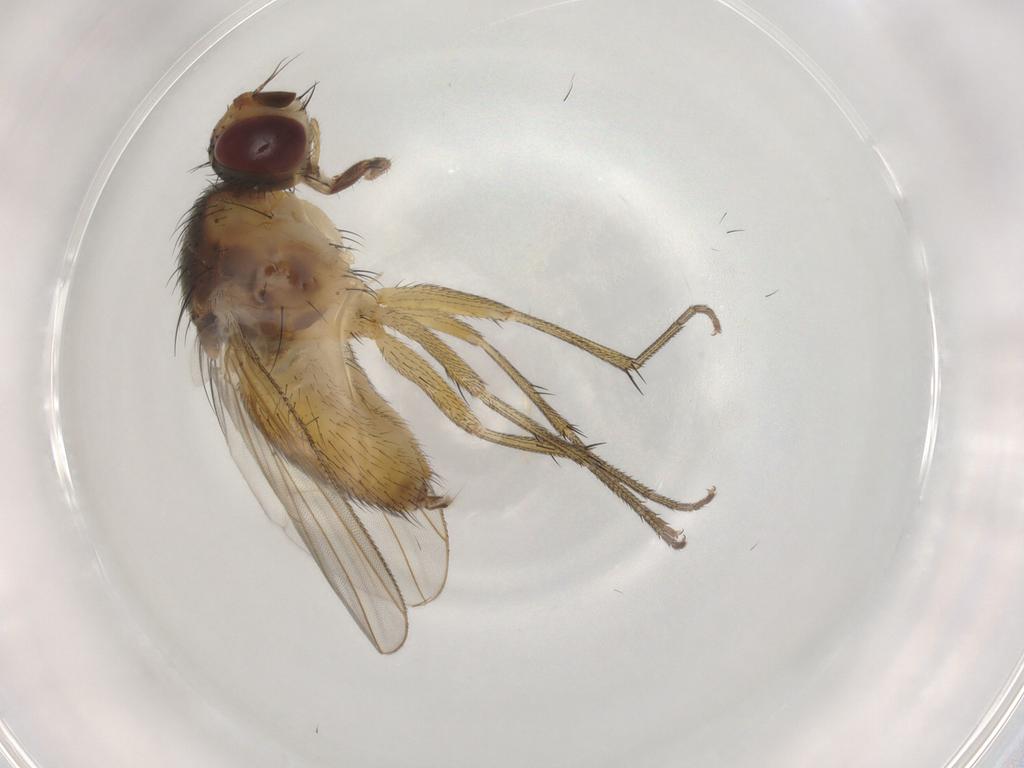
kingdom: Animalia
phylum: Arthropoda
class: Insecta
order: Diptera
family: Muscidae
